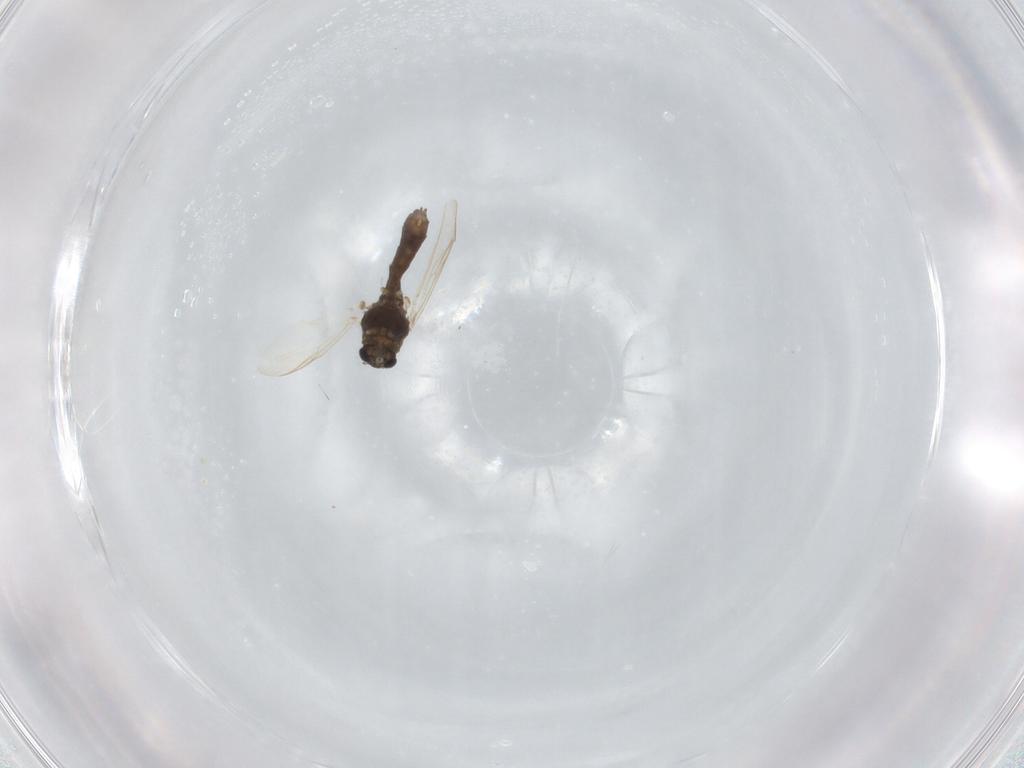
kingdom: Animalia
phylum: Arthropoda
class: Insecta
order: Diptera
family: Chironomidae
